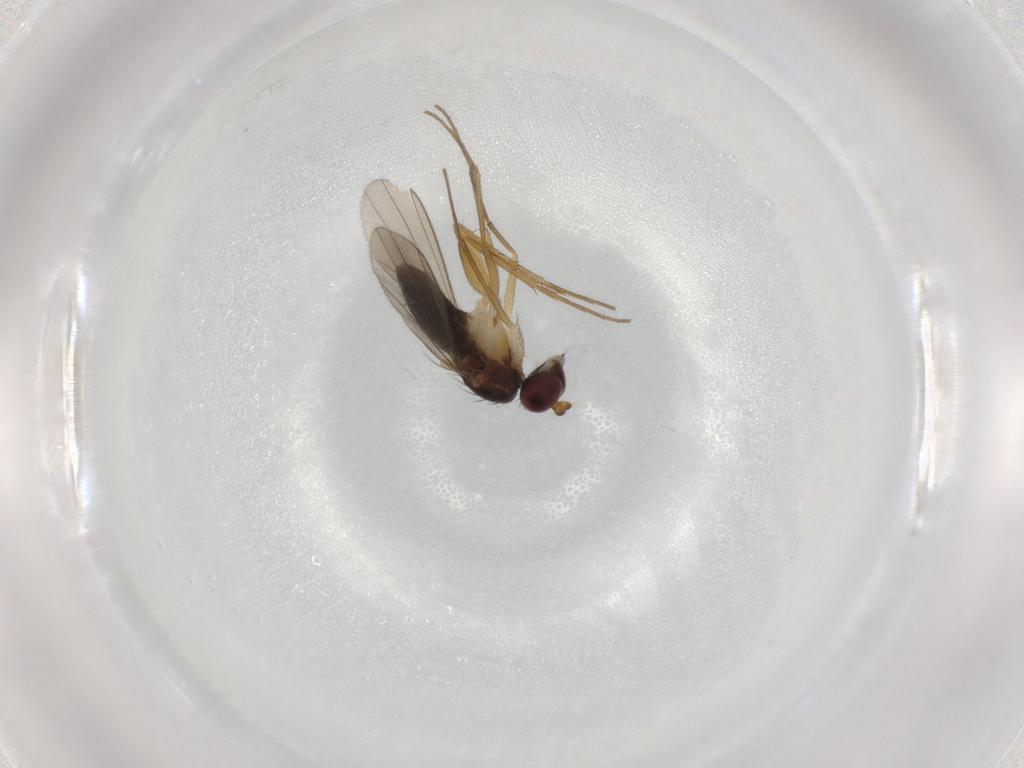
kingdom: Animalia
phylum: Arthropoda
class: Insecta
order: Diptera
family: Dolichopodidae
